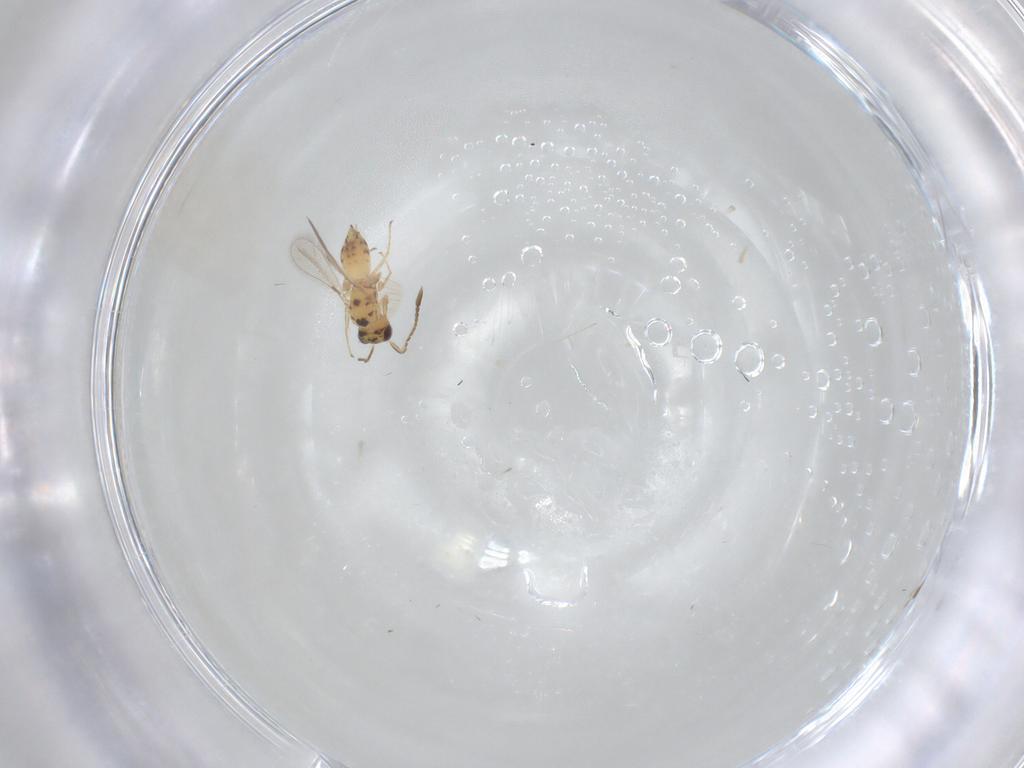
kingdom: Animalia
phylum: Arthropoda
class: Insecta
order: Hymenoptera
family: Mymaridae
